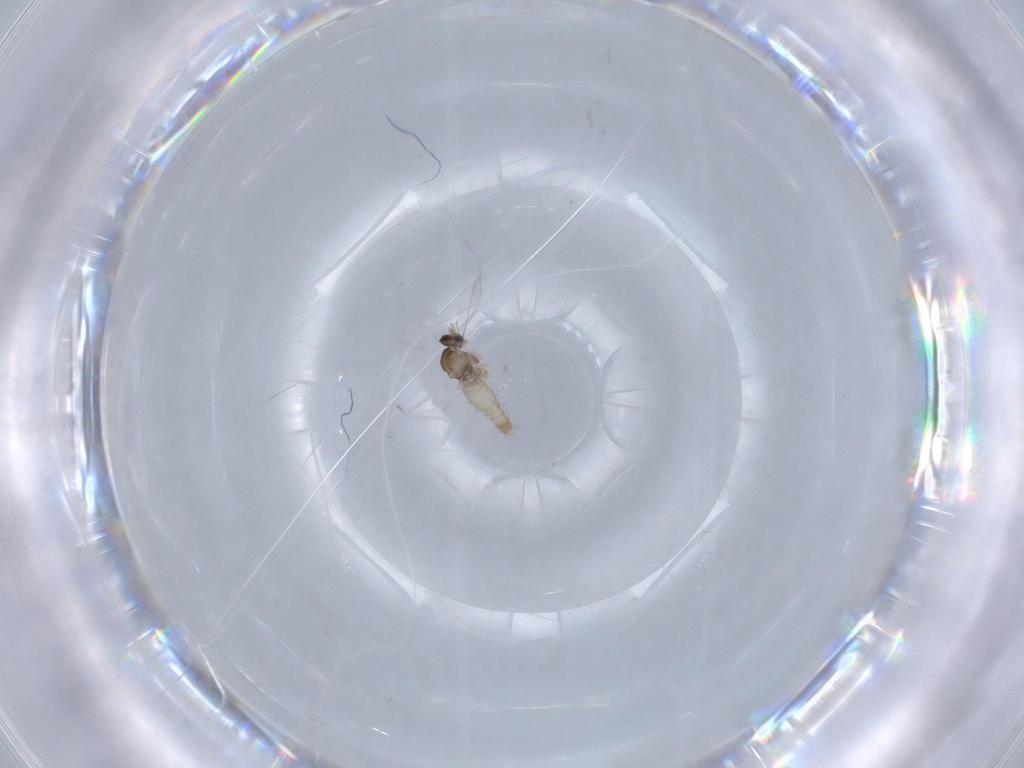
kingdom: Animalia
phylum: Arthropoda
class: Insecta
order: Diptera
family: Cecidomyiidae
